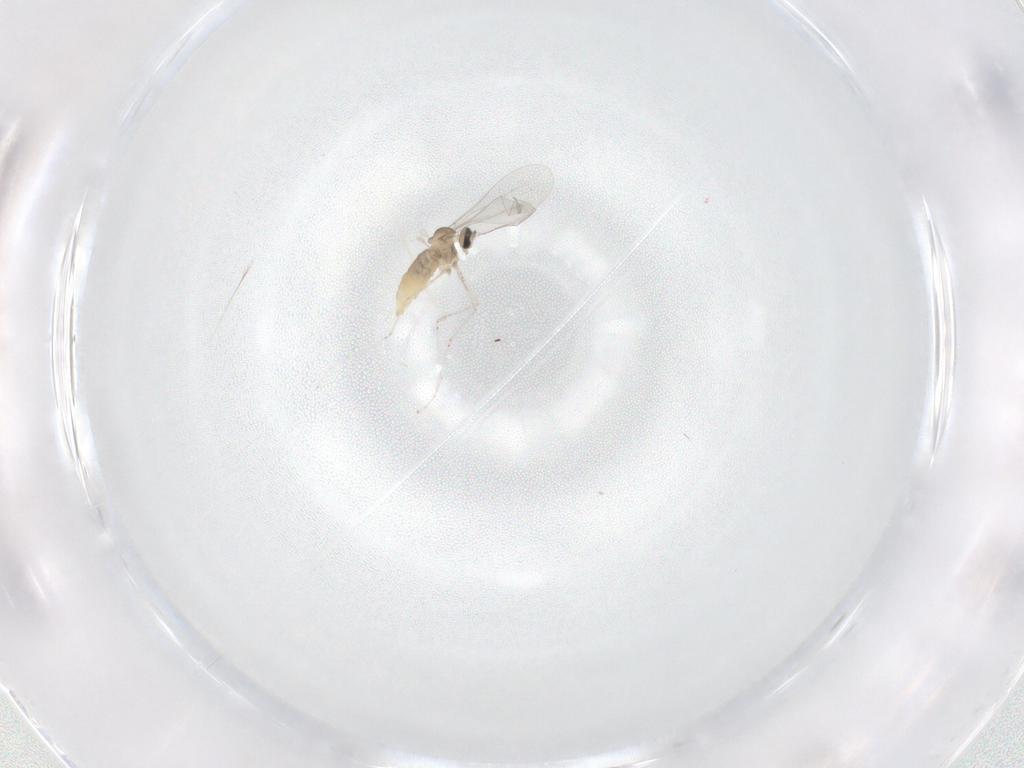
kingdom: Animalia
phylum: Arthropoda
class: Insecta
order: Diptera
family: Cecidomyiidae
